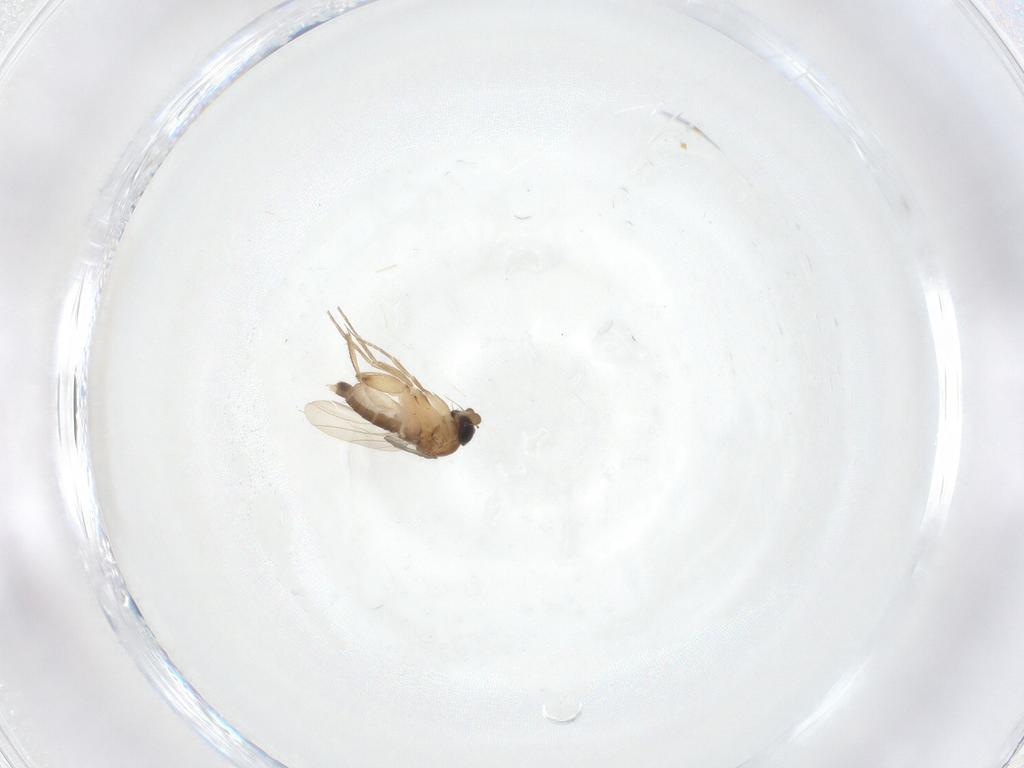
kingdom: Animalia
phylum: Arthropoda
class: Insecta
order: Diptera
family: Phoridae
